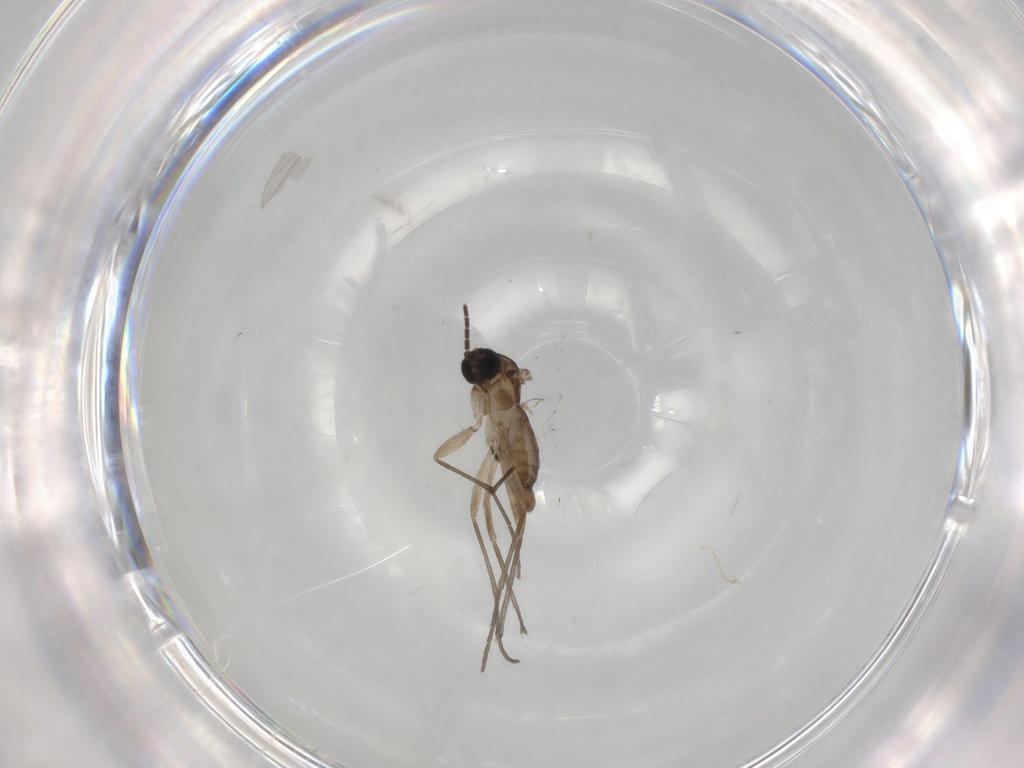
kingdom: Animalia
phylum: Arthropoda
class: Insecta
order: Diptera
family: Sciaridae
